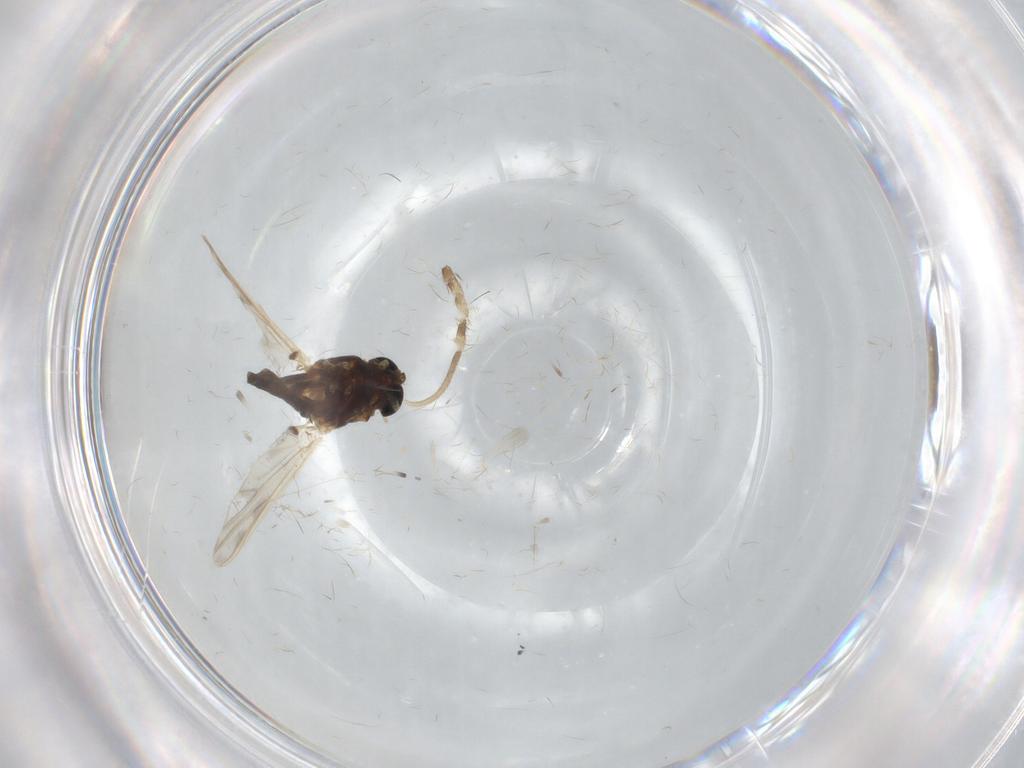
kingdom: Animalia
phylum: Arthropoda
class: Insecta
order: Diptera
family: Chironomidae
